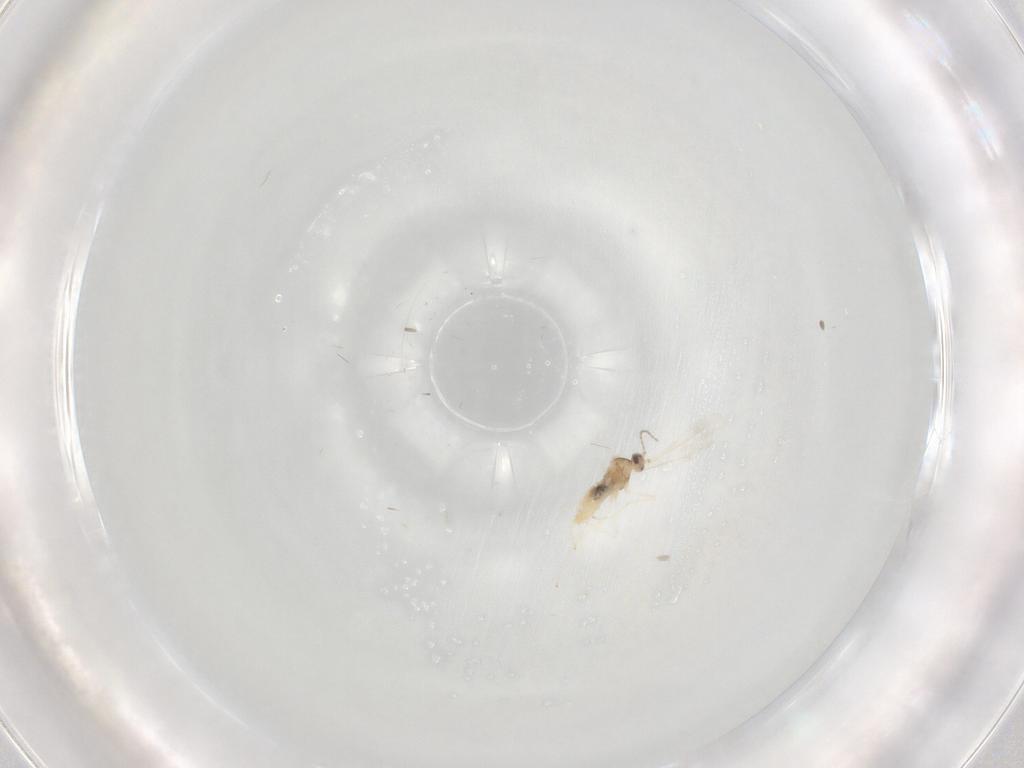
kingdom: Animalia
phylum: Arthropoda
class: Insecta
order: Diptera
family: Cecidomyiidae
